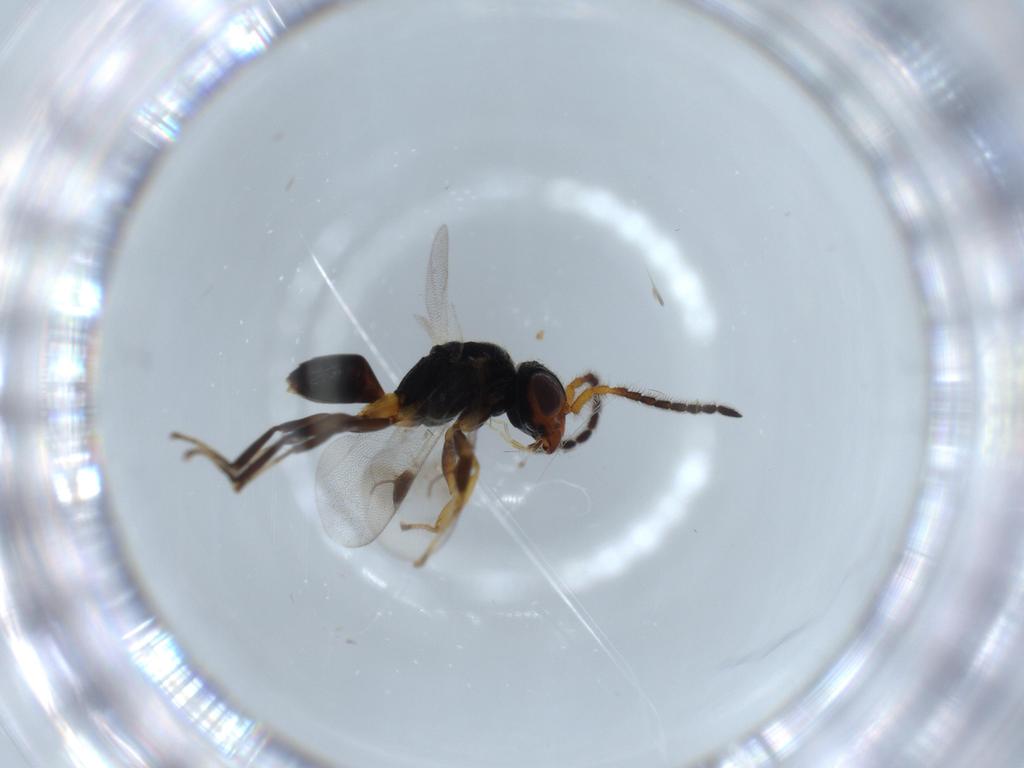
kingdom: Animalia
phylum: Arthropoda
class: Insecta
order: Hymenoptera
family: Dryinidae
